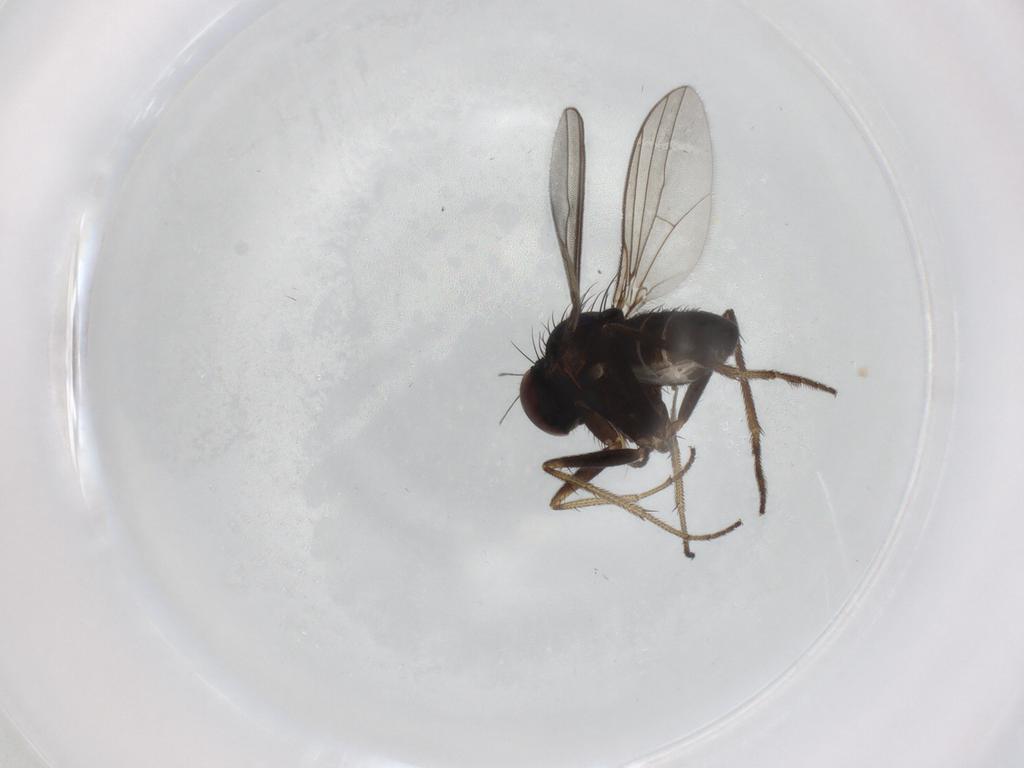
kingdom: Animalia
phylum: Arthropoda
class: Insecta
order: Diptera
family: Psychodidae
